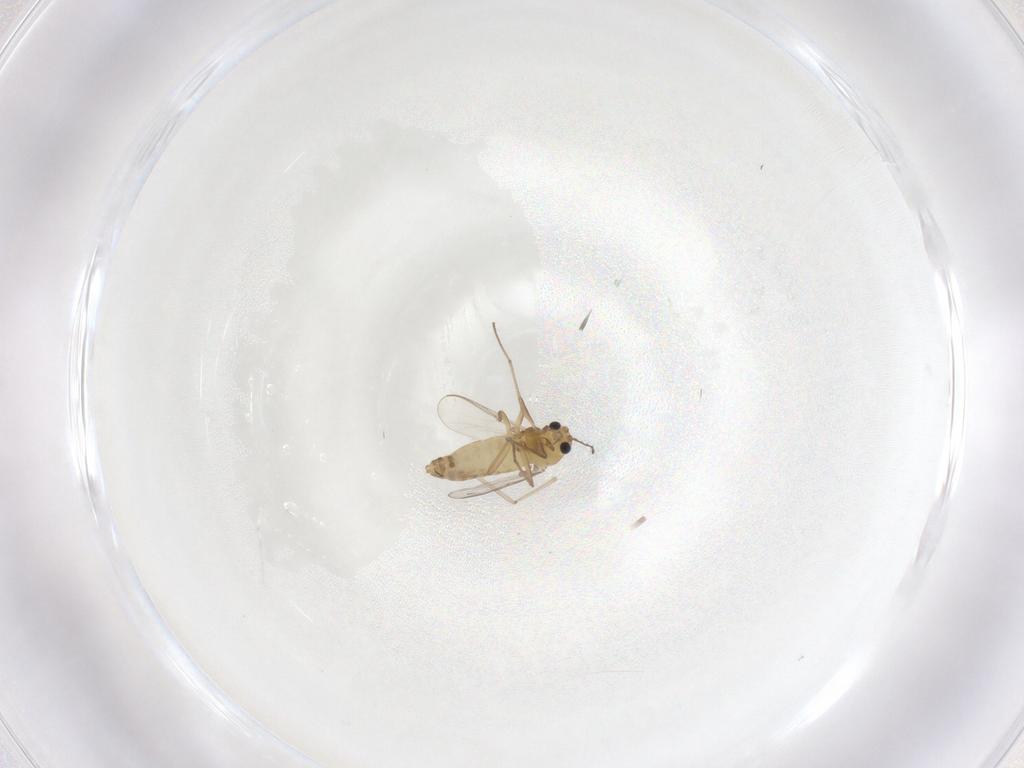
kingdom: Animalia
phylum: Arthropoda
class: Insecta
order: Diptera
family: Chironomidae
